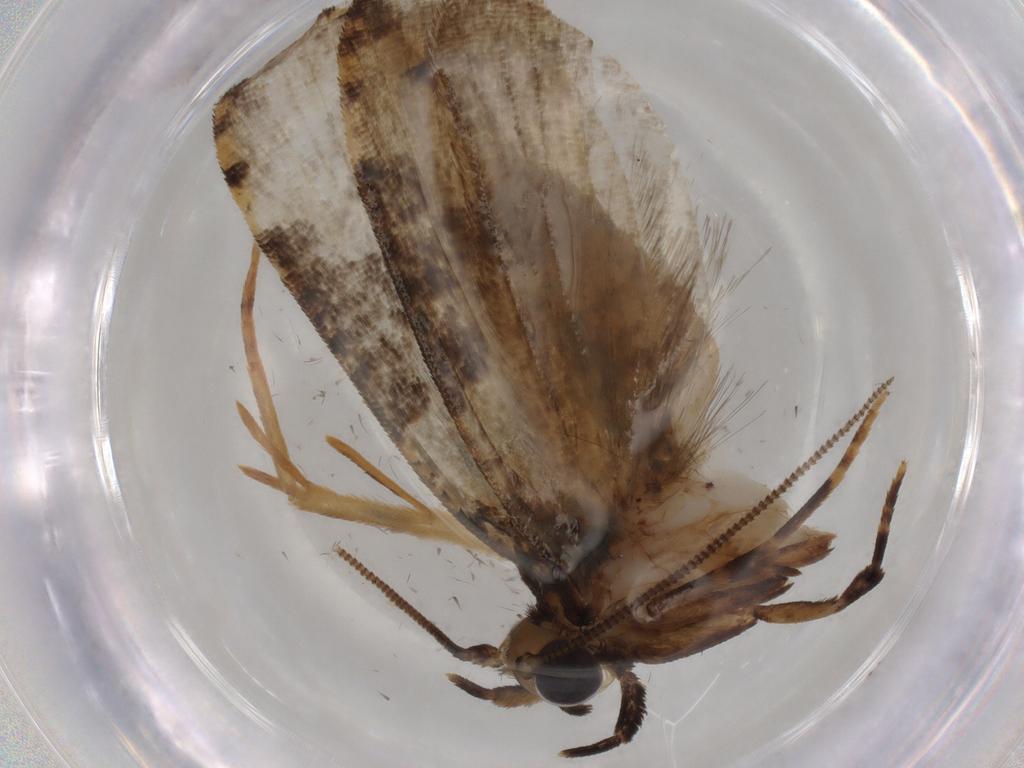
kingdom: Animalia
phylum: Arthropoda
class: Insecta
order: Lepidoptera
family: Tineidae
